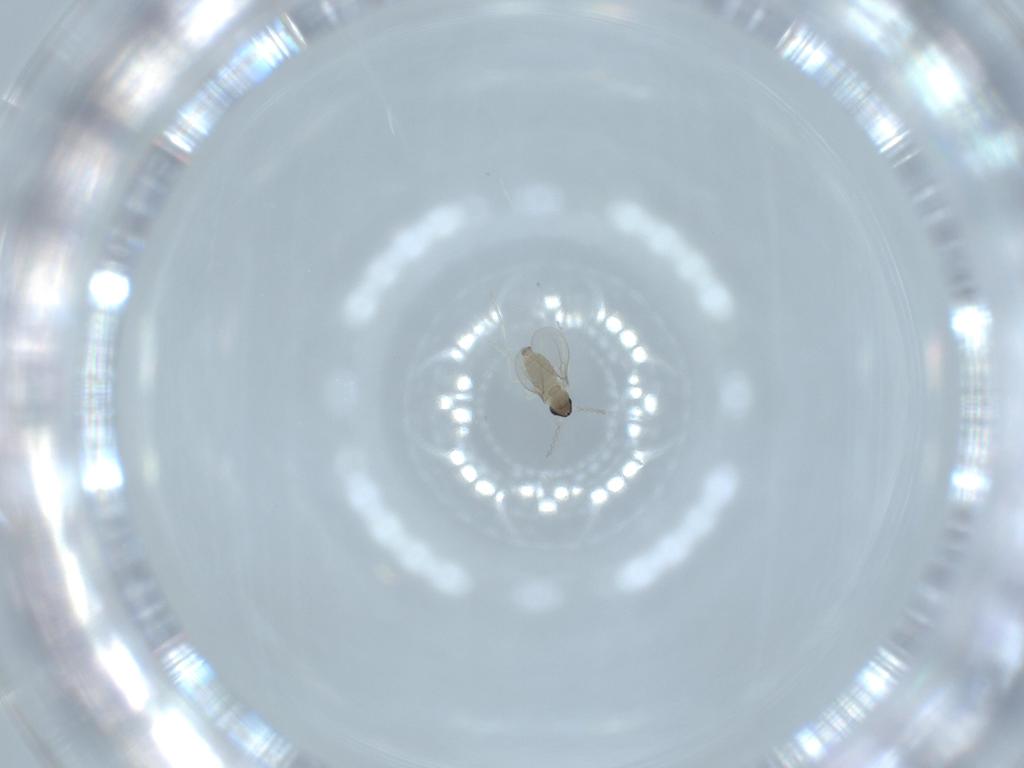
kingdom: Animalia
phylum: Arthropoda
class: Insecta
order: Diptera
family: Cecidomyiidae
